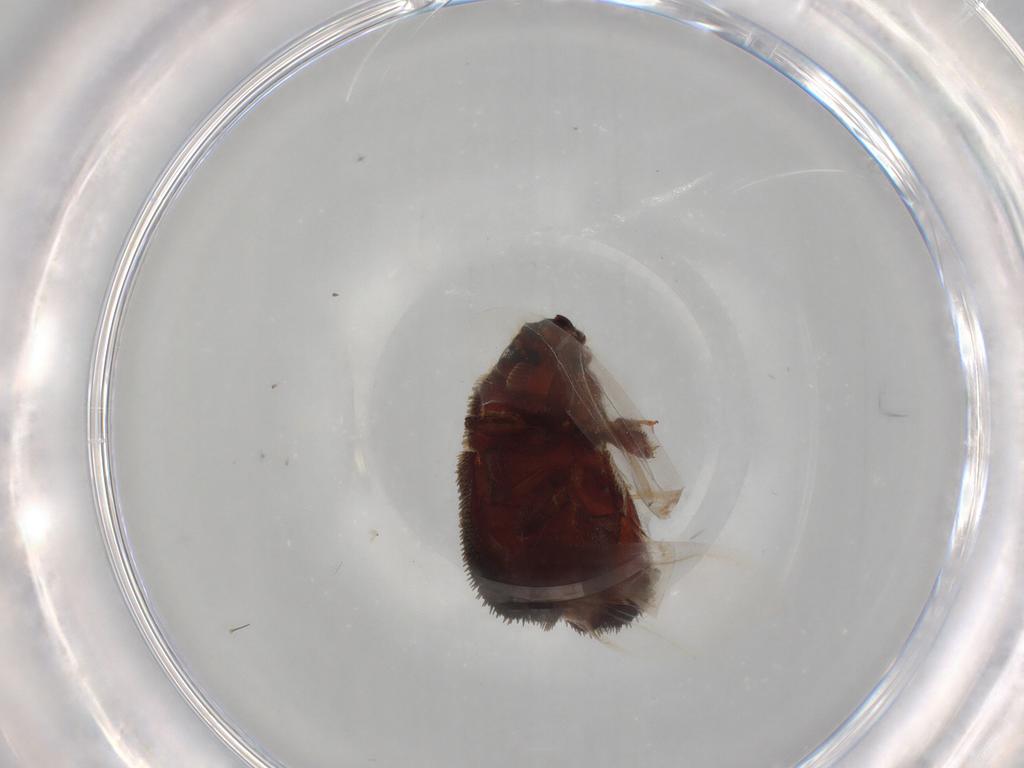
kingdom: Animalia
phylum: Arthropoda
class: Insecta
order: Coleoptera
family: Curculionidae
